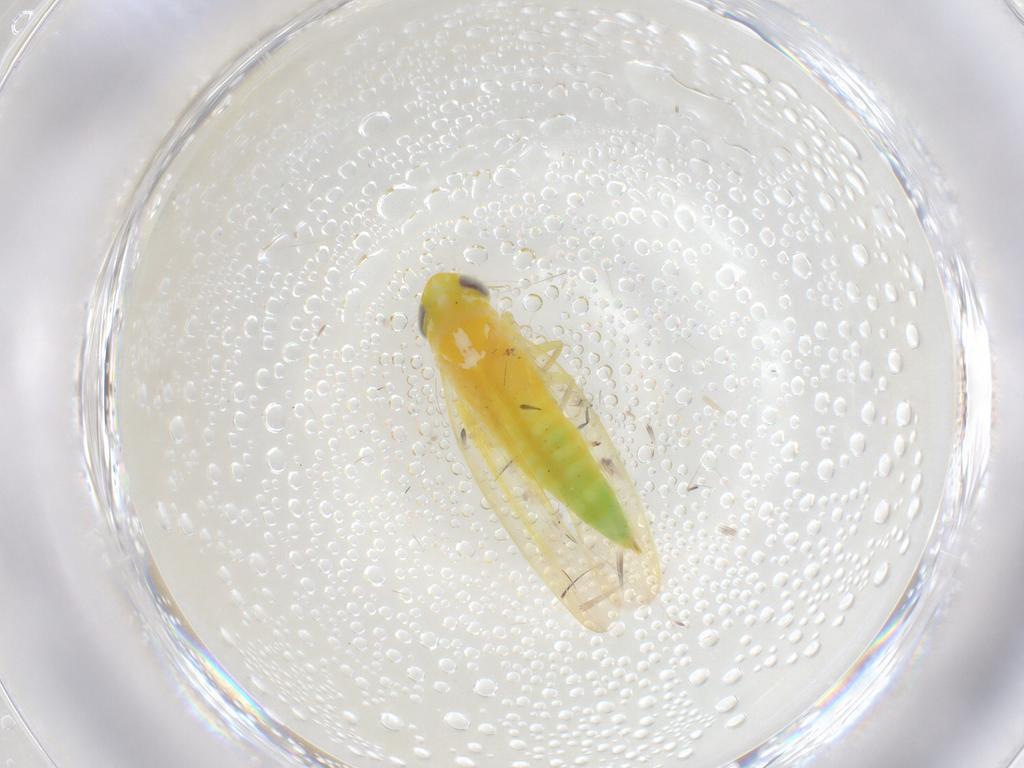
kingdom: Animalia
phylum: Arthropoda
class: Insecta
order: Hemiptera
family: Cicadellidae
